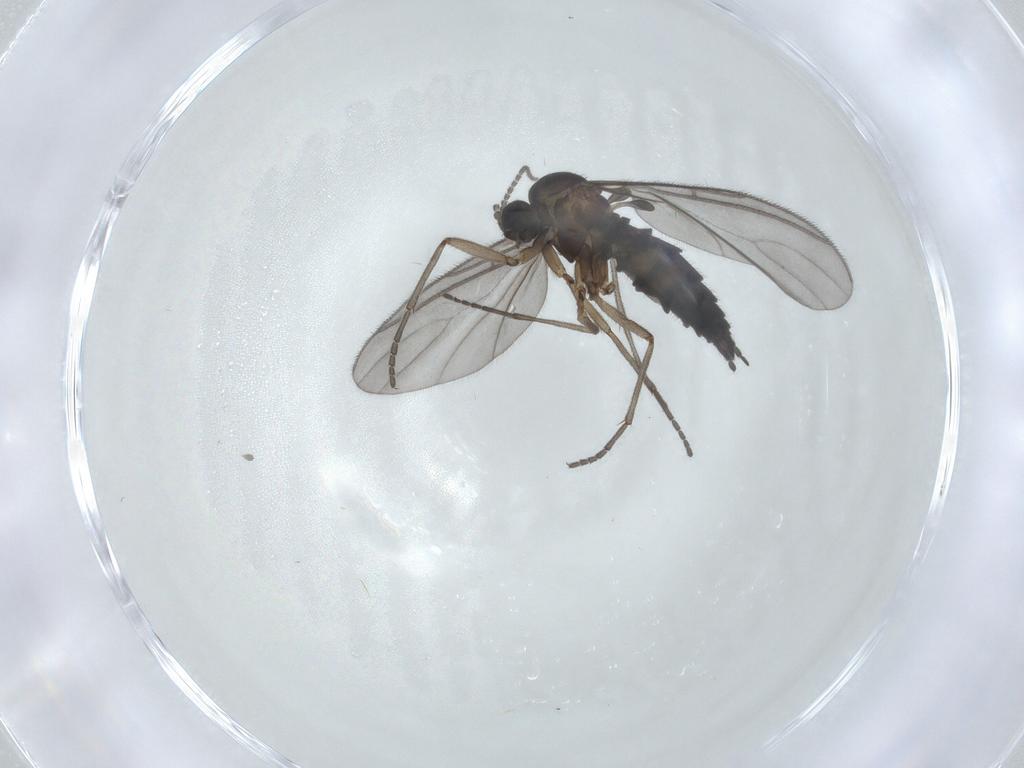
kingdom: Animalia
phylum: Arthropoda
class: Insecta
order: Diptera
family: Sciaridae
